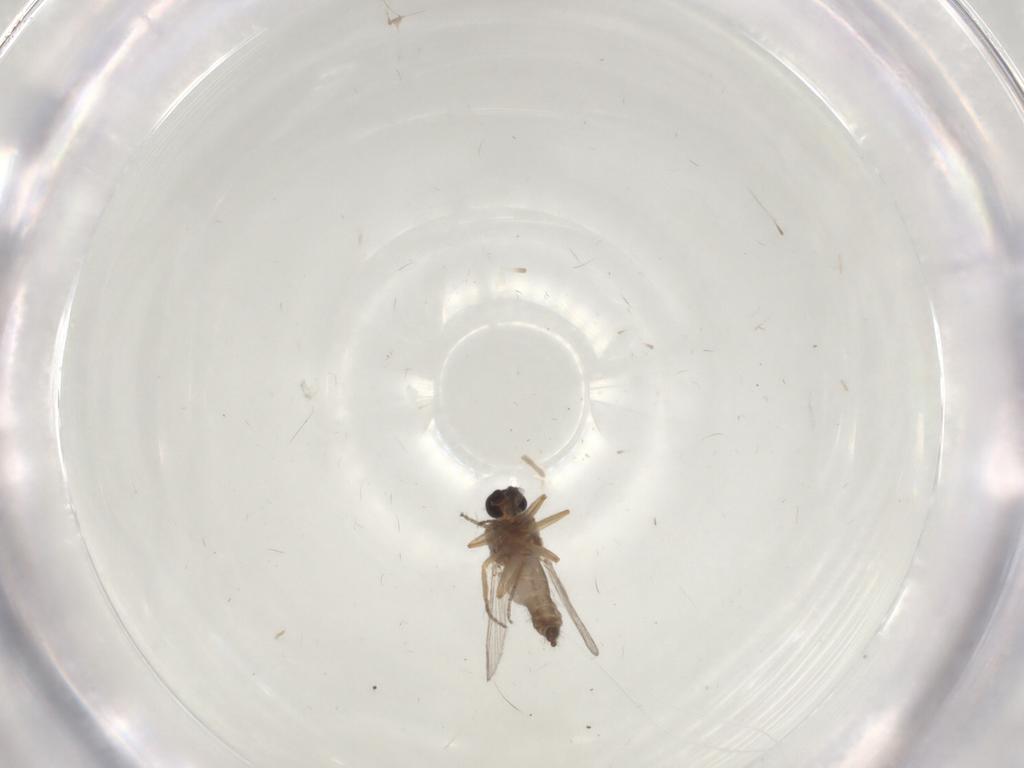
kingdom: Animalia
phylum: Arthropoda
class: Insecta
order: Diptera
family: Ceratopogonidae
